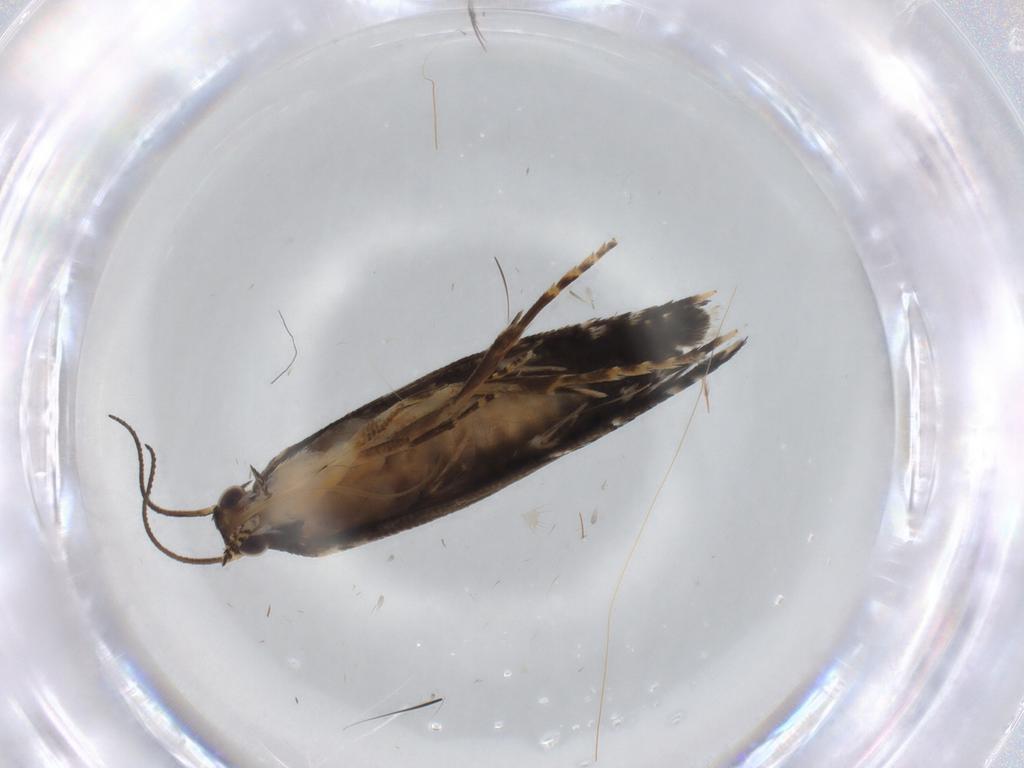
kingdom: Animalia
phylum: Arthropoda
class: Insecta
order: Lepidoptera
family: Glyphipterigidae
